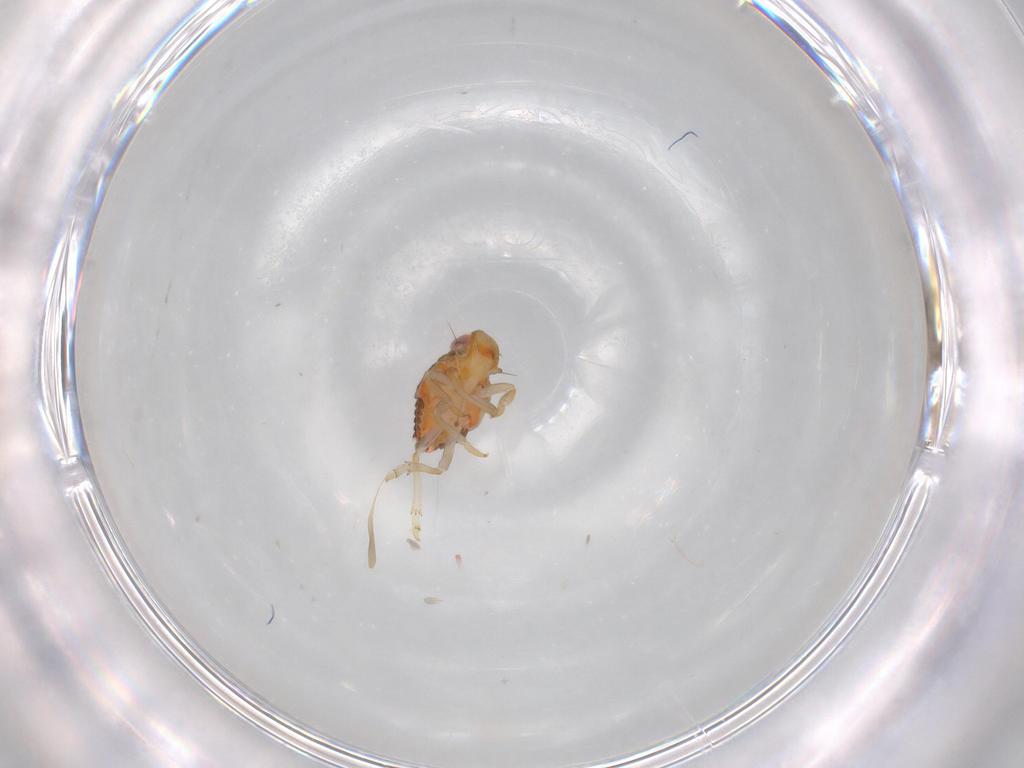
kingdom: Animalia
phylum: Arthropoda
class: Insecta
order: Hemiptera
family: Issidae
